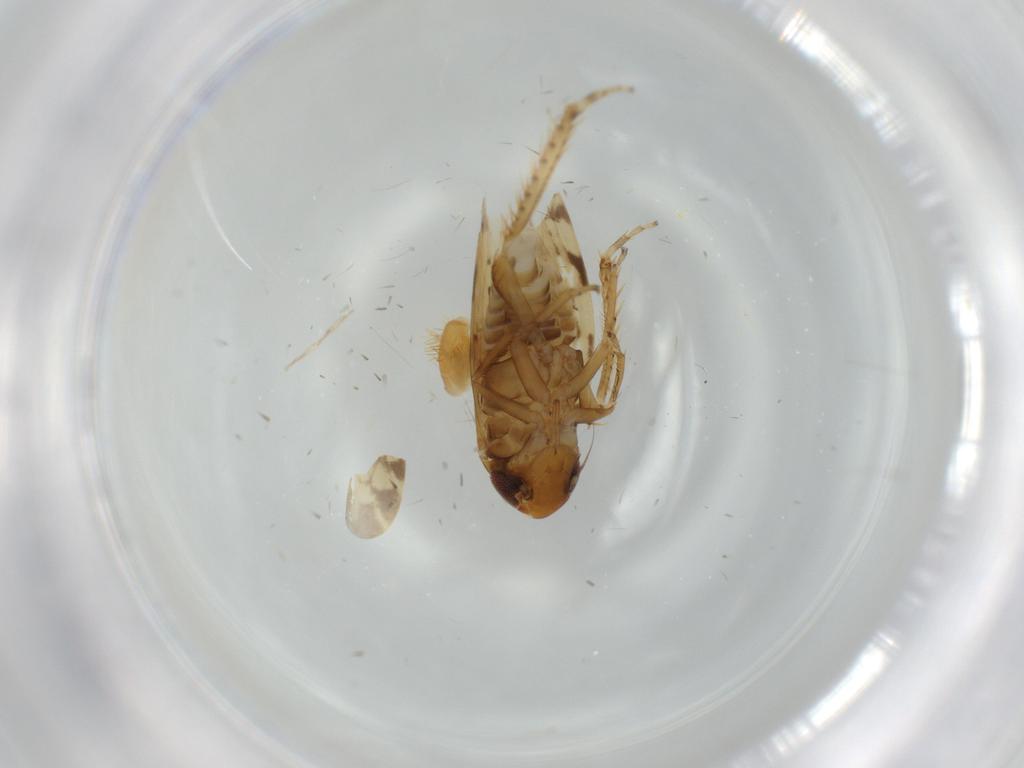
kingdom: Animalia
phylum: Arthropoda
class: Insecta
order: Hemiptera
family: Cicadellidae
